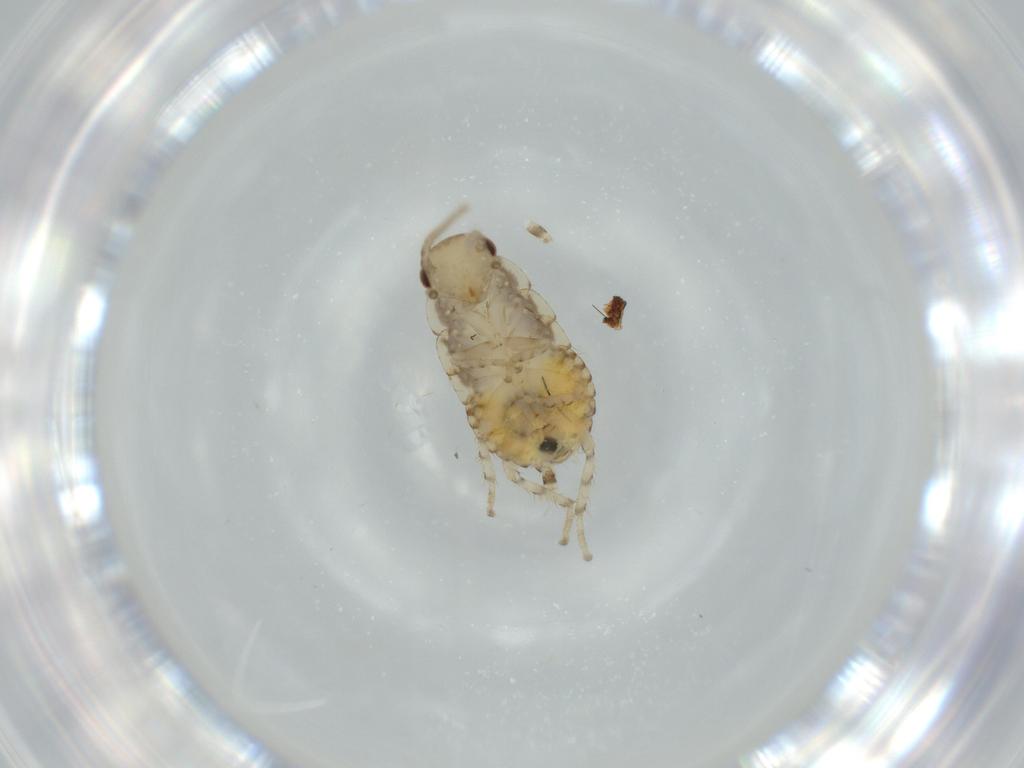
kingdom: Animalia
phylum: Arthropoda
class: Insecta
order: Blattodea
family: Ectobiidae
